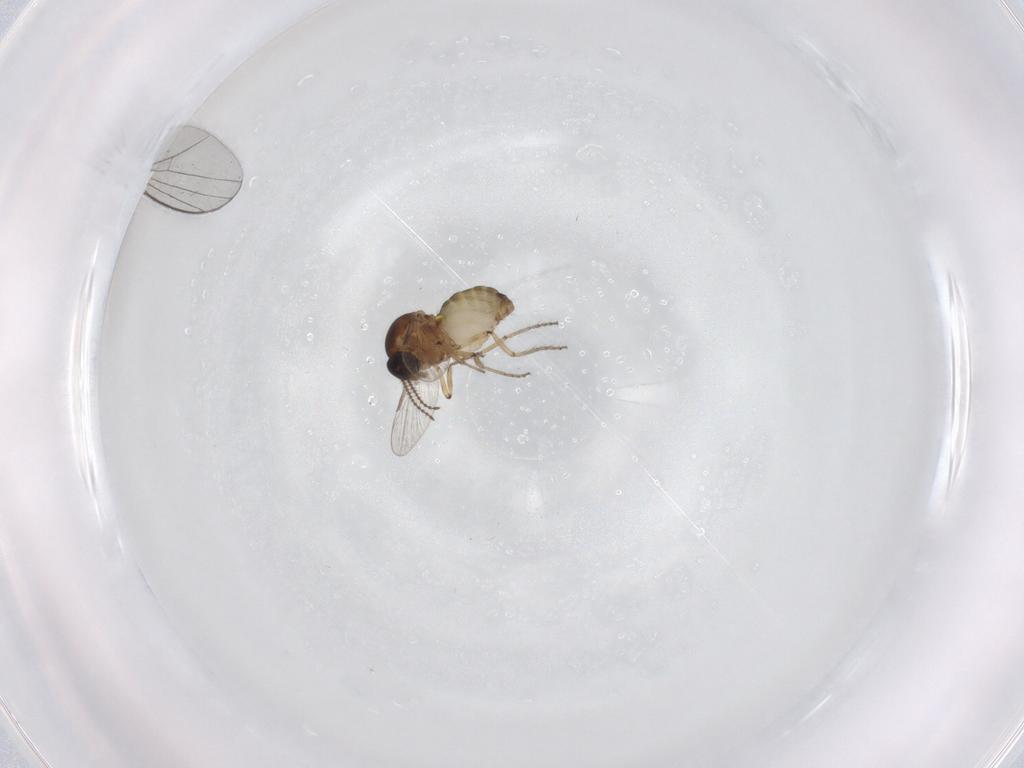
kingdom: Animalia
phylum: Arthropoda
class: Insecta
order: Diptera
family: Ceratopogonidae
